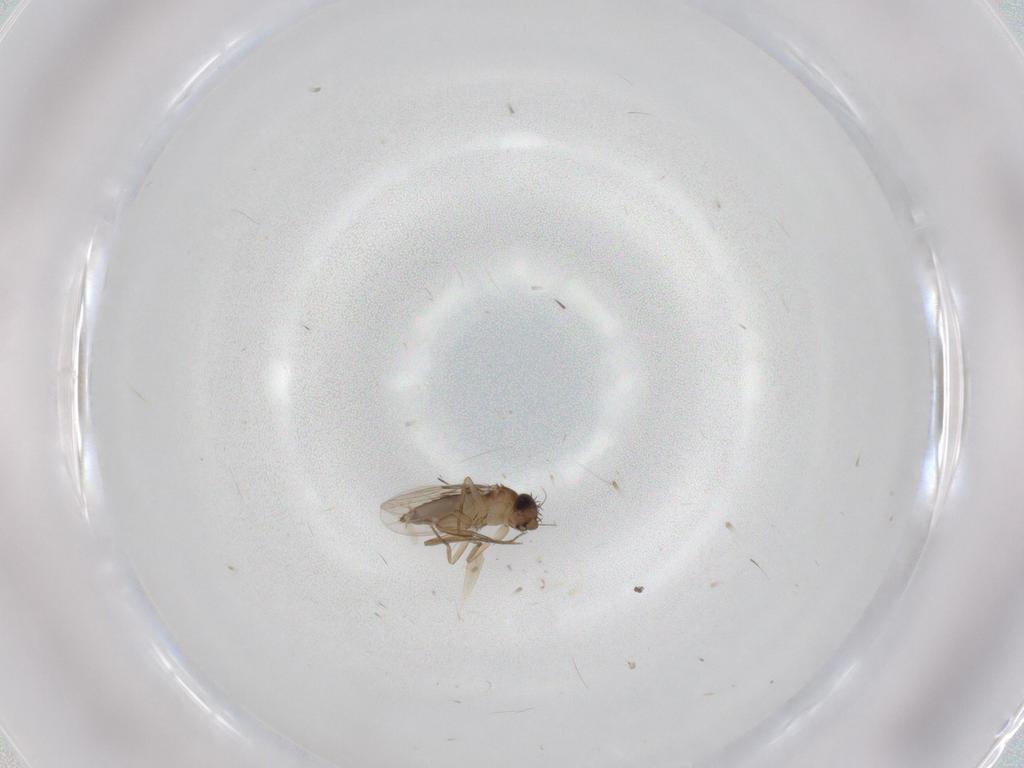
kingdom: Animalia
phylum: Arthropoda
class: Insecta
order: Diptera
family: Phoridae
